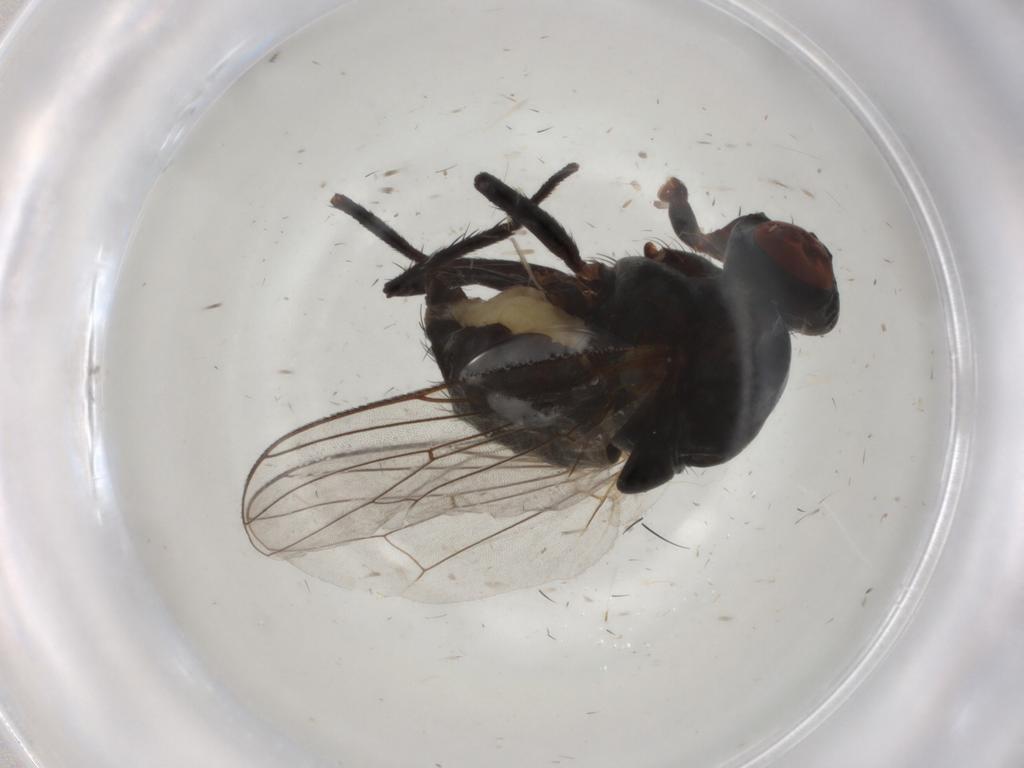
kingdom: Animalia
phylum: Arthropoda
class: Insecta
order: Diptera
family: Anthomyiidae
